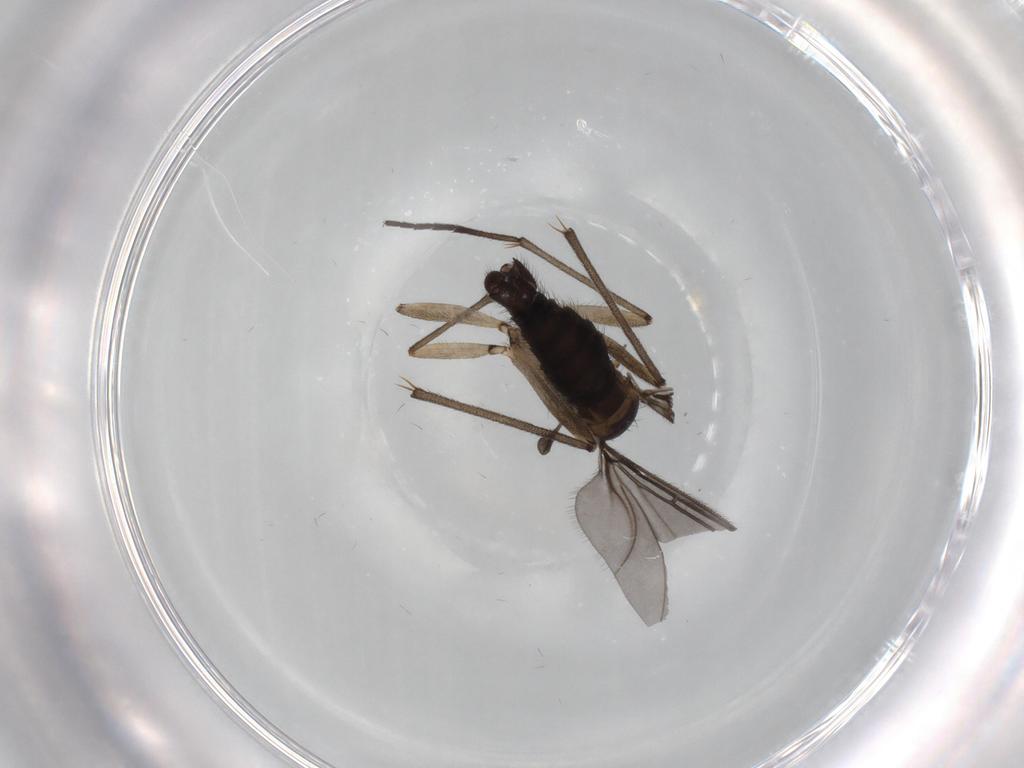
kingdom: Animalia
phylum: Arthropoda
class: Insecta
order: Diptera
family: Sciaridae
